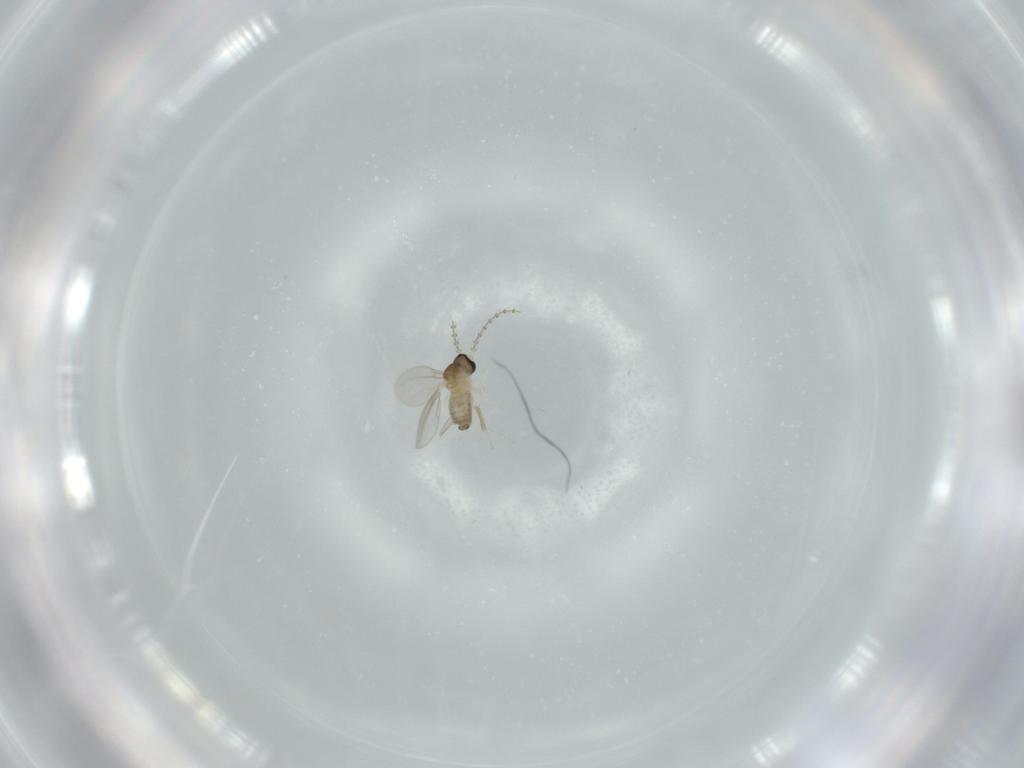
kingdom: Animalia
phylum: Arthropoda
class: Insecta
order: Diptera
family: Cecidomyiidae
